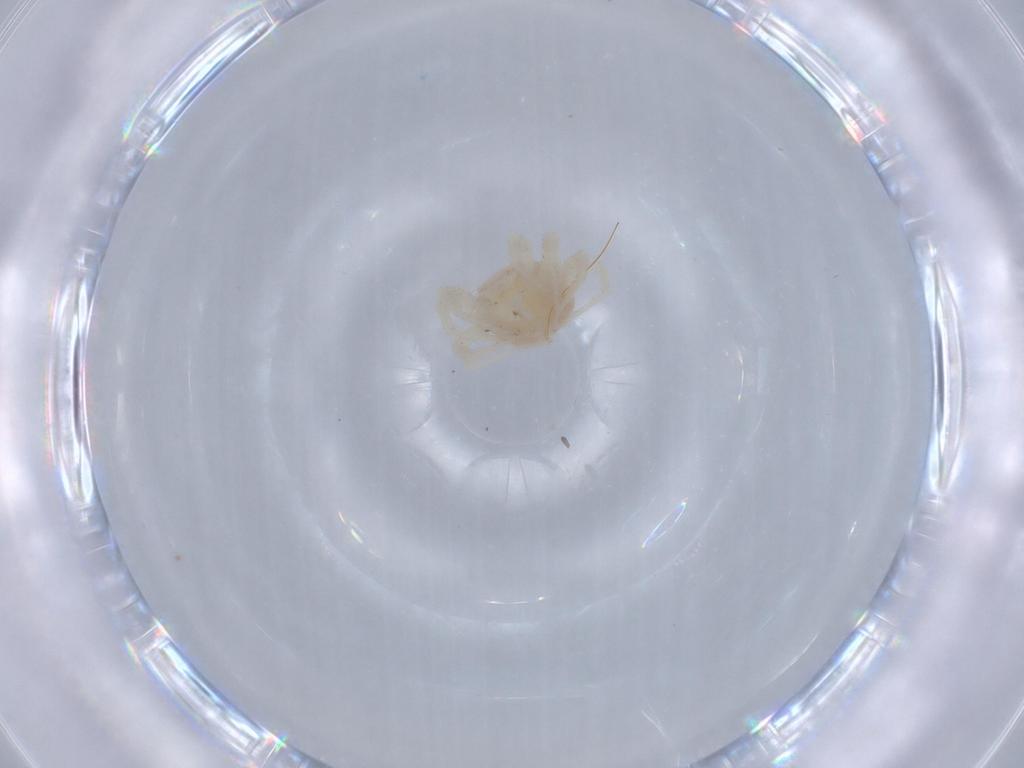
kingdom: Animalia
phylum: Arthropoda
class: Arachnida
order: Trombidiformes
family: Anystidae
